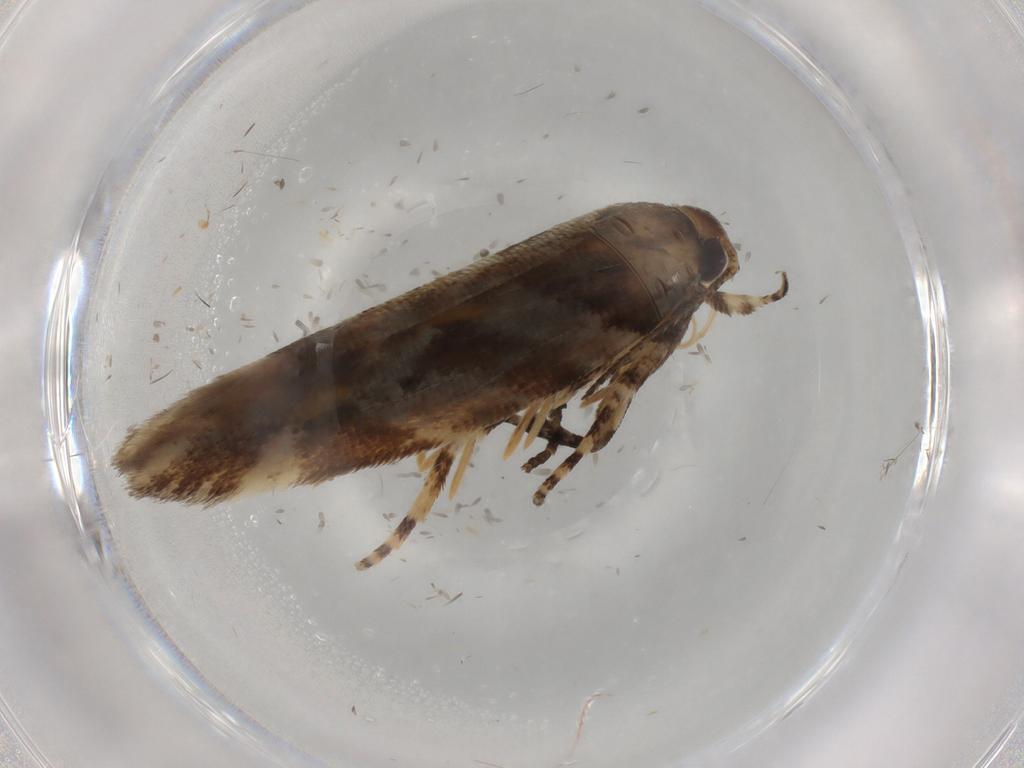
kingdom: Animalia
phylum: Arthropoda
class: Insecta
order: Lepidoptera
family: Gelechiidae
